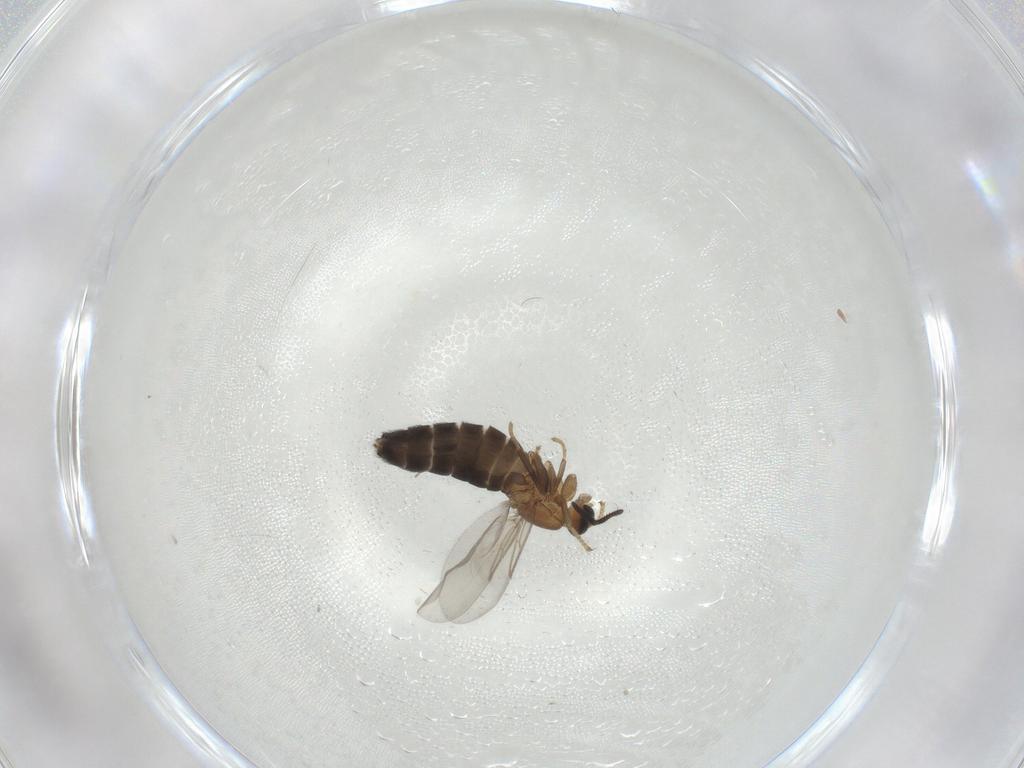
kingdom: Animalia
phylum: Arthropoda
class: Insecta
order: Diptera
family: Scatopsidae
